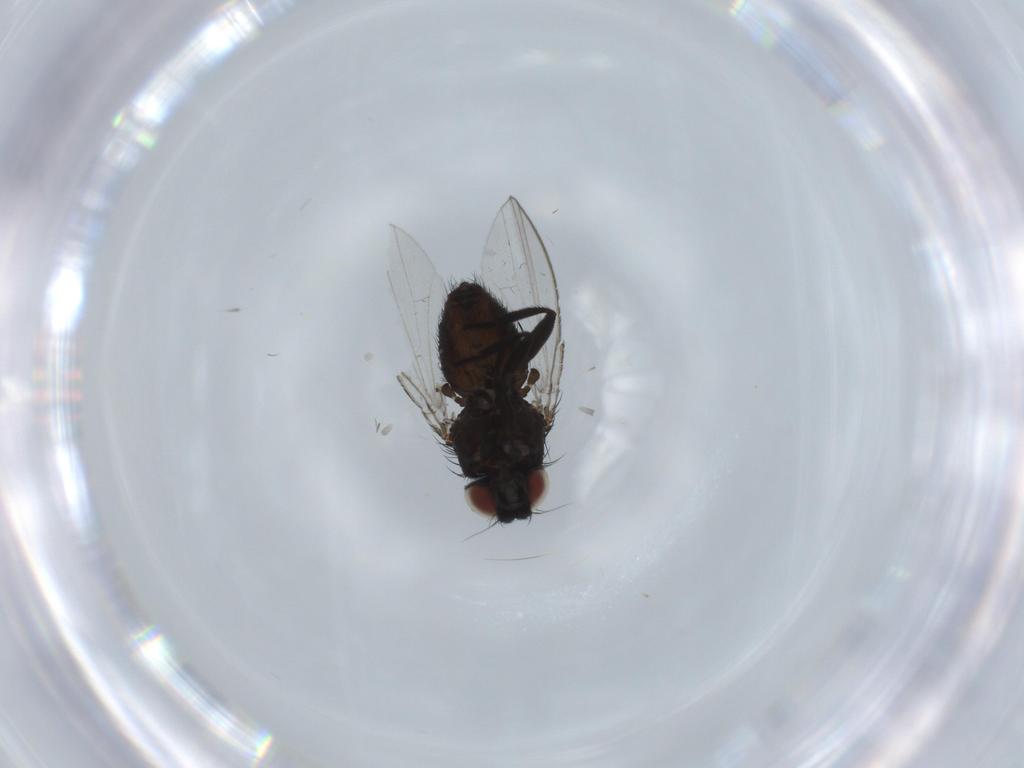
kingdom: Animalia
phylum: Arthropoda
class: Insecta
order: Diptera
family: Milichiidae
